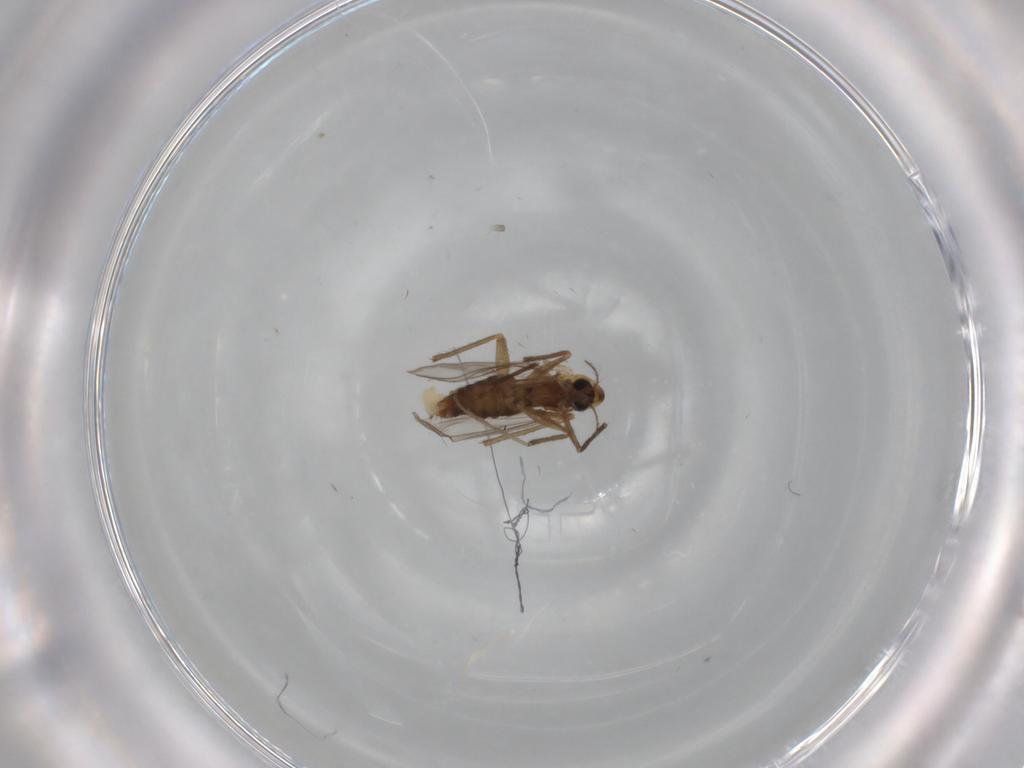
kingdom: Animalia
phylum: Arthropoda
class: Insecta
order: Diptera
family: Chironomidae
